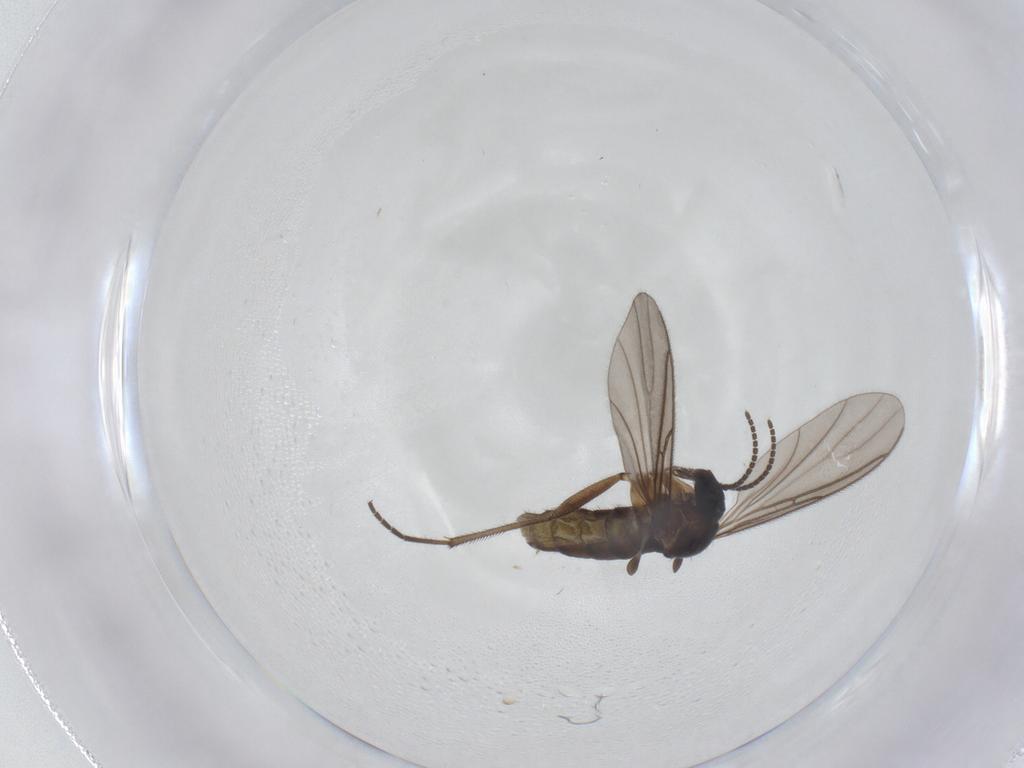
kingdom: Animalia
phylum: Arthropoda
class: Insecta
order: Diptera
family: Sciaridae
